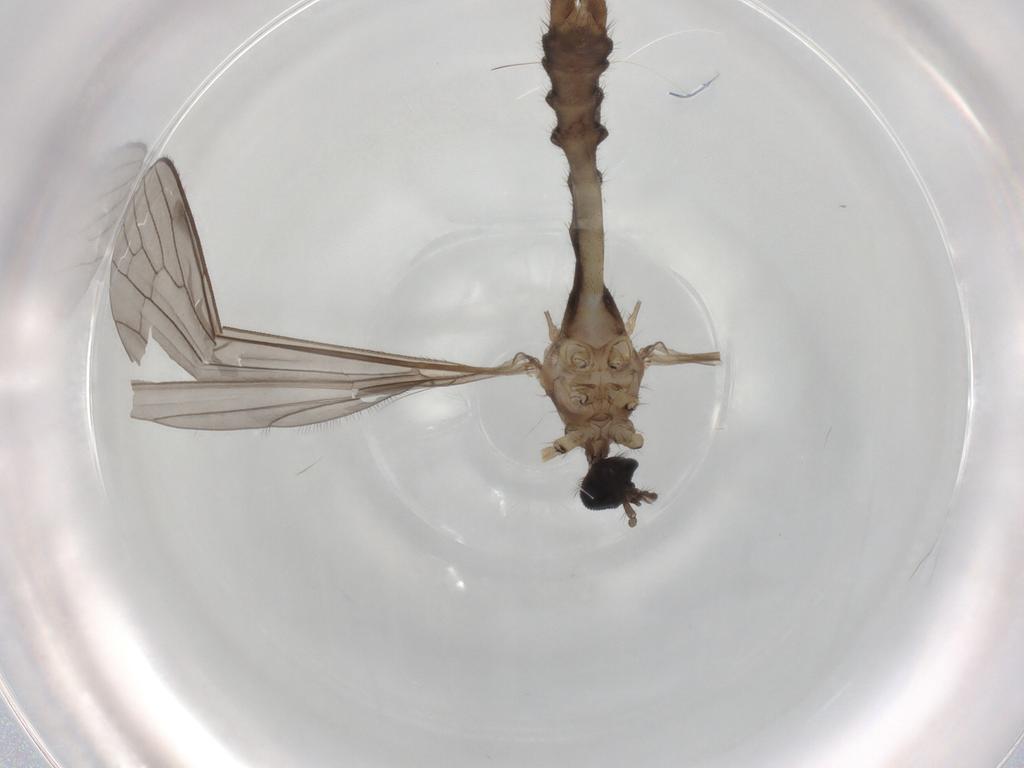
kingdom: Animalia
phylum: Arthropoda
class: Insecta
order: Diptera
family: Limoniidae
